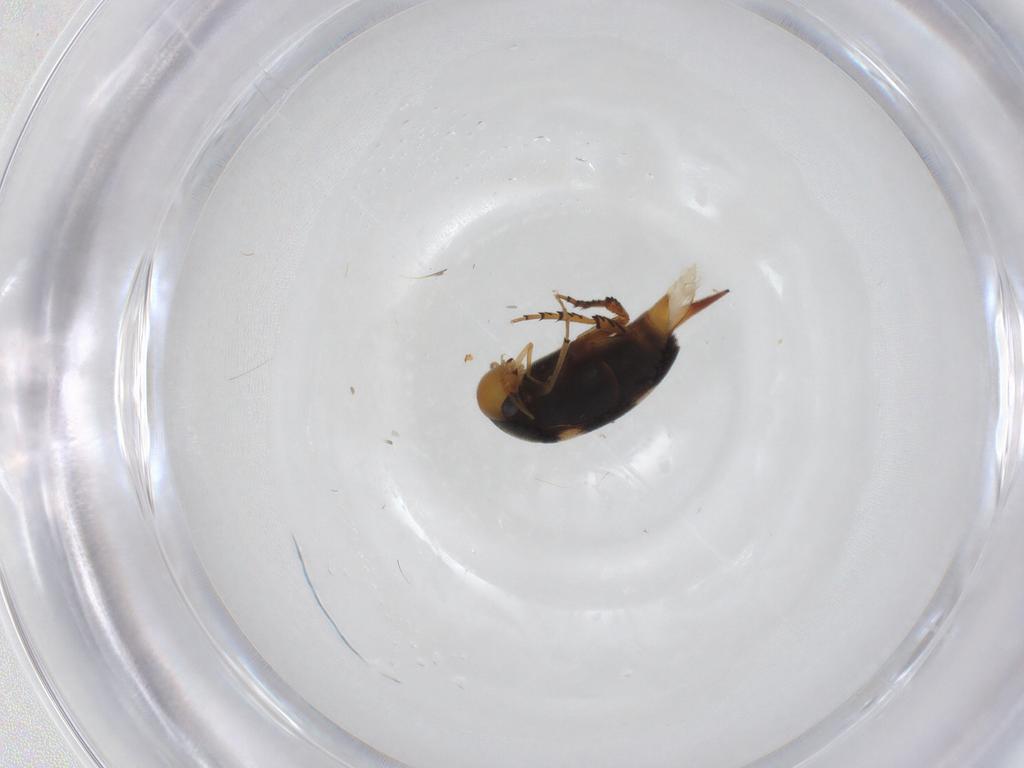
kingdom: Animalia
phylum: Arthropoda
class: Insecta
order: Coleoptera
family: Mordellidae
